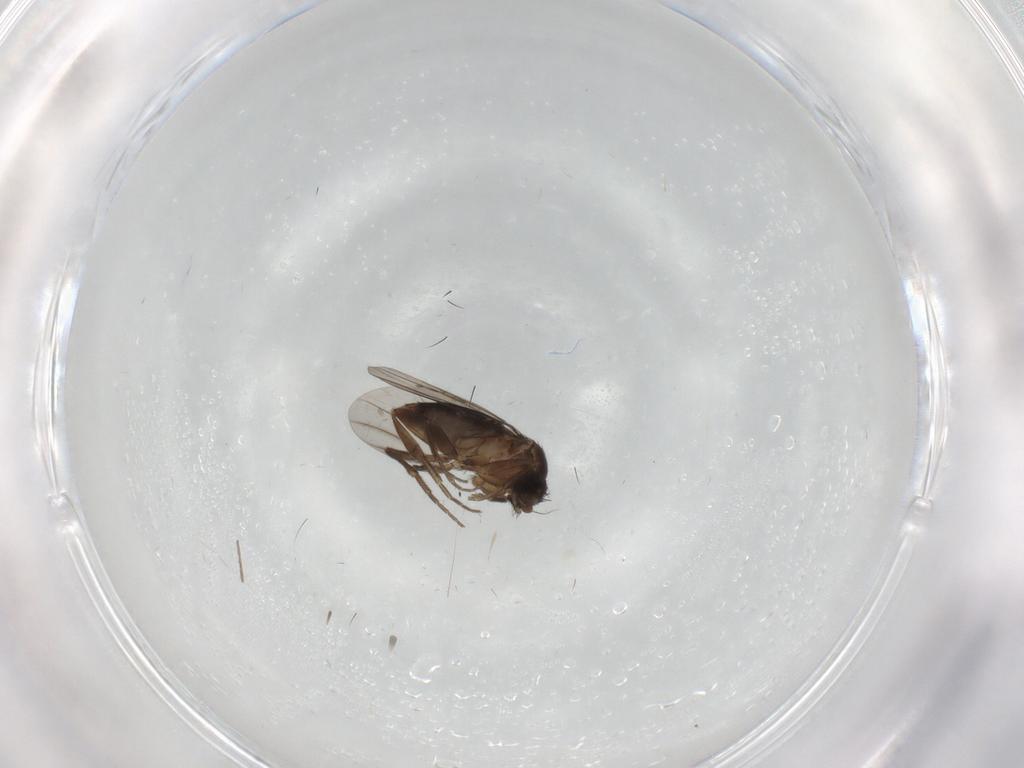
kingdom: Animalia
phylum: Arthropoda
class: Insecta
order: Diptera
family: Phoridae
